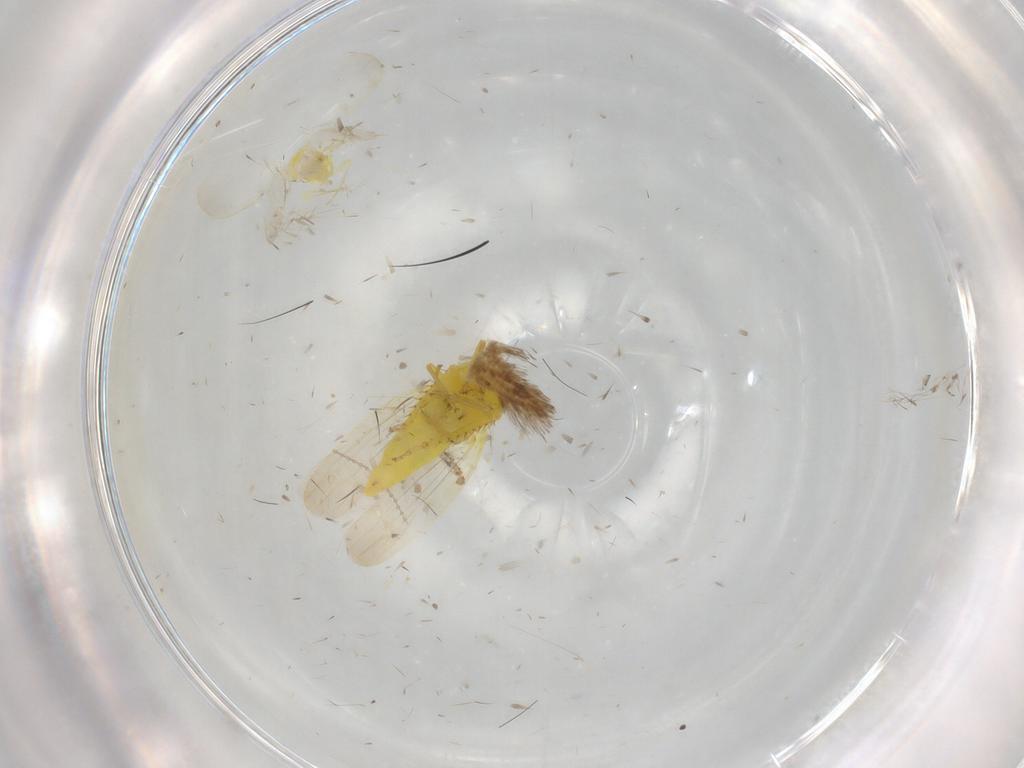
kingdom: Animalia
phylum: Arthropoda
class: Insecta
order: Hemiptera
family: Cicadellidae
